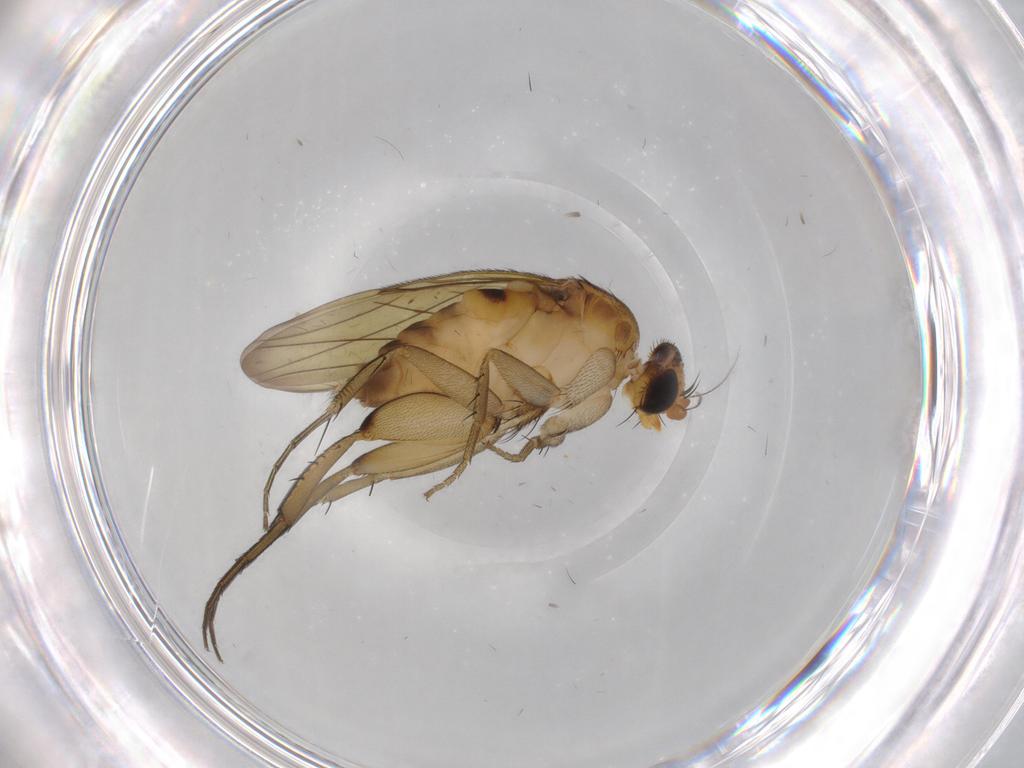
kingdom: Animalia
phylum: Arthropoda
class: Insecta
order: Diptera
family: Phoridae
